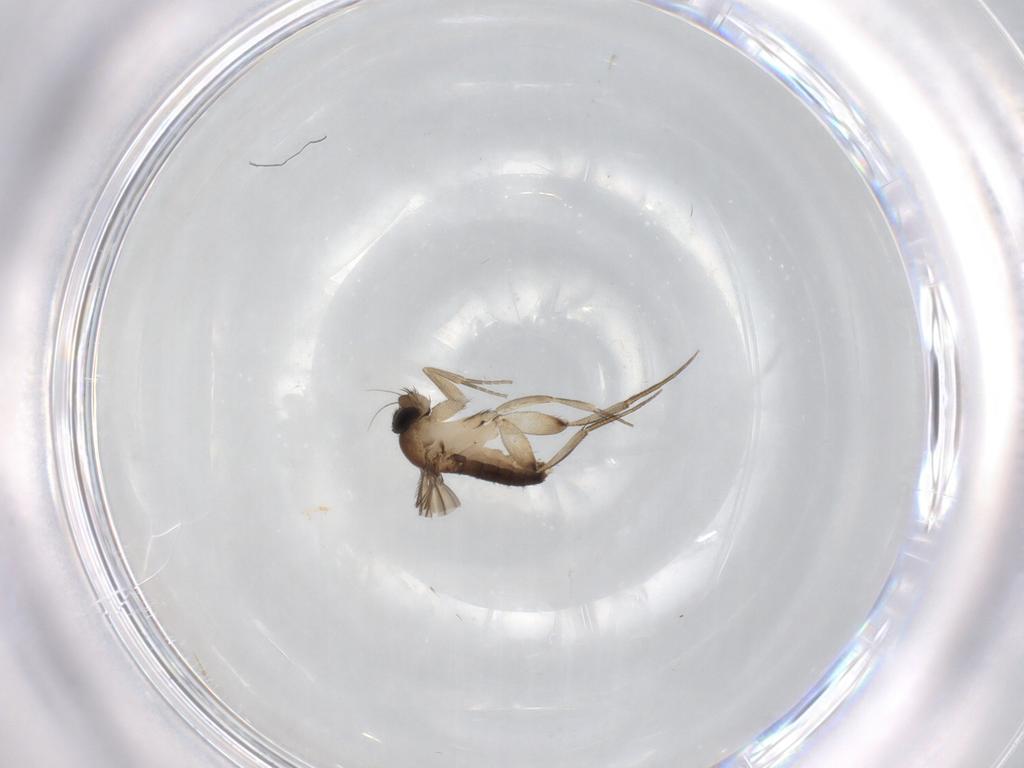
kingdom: Animalia
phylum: Arthropoda
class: Insecta
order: Diptera
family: Phoridae
